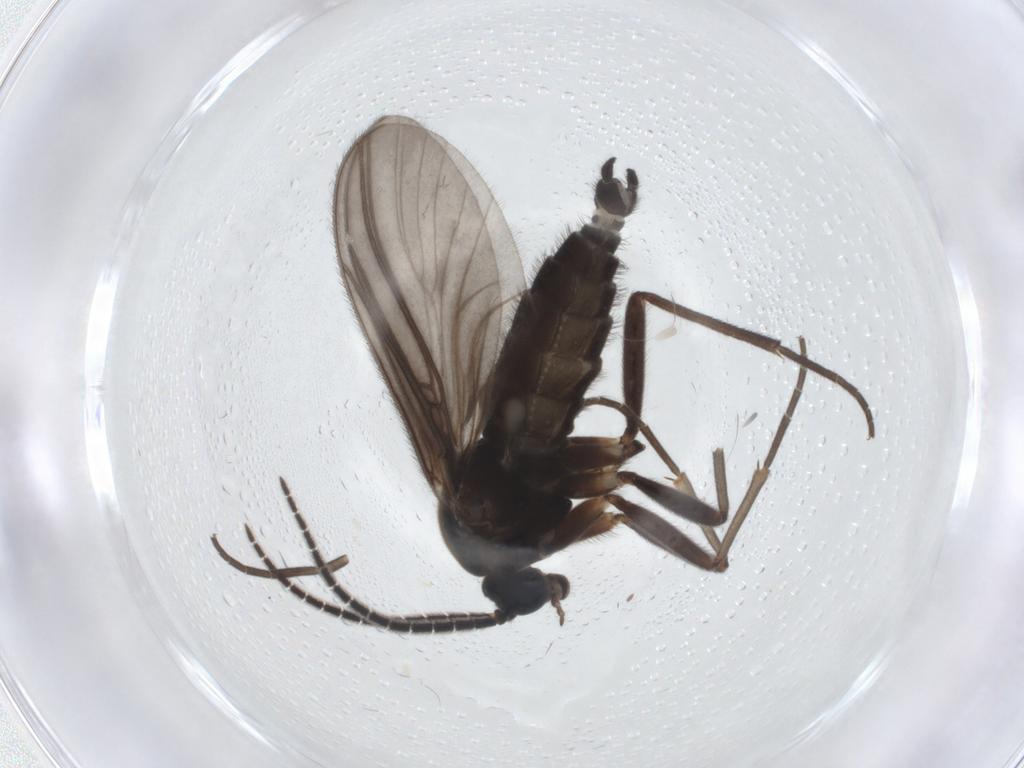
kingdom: Animalia
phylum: Arthropoda
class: Insecta
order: Diptera
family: Sciaridae
